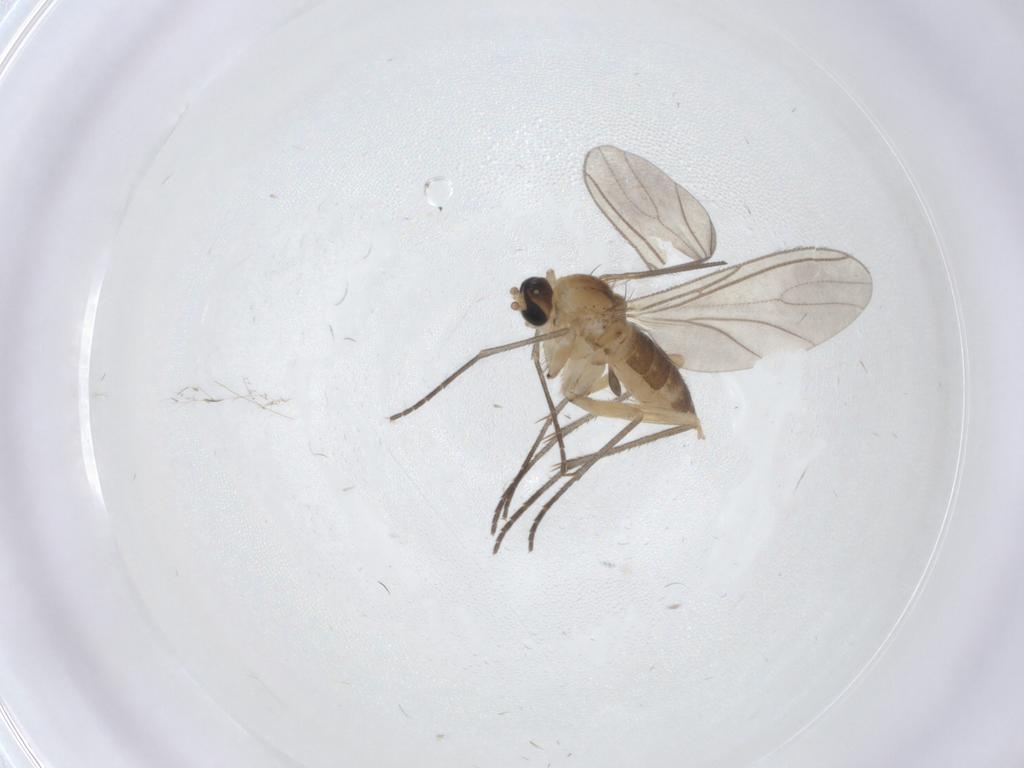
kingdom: Animalia
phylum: Arthropoda
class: Insecta
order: Diptera
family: Sciaridae
